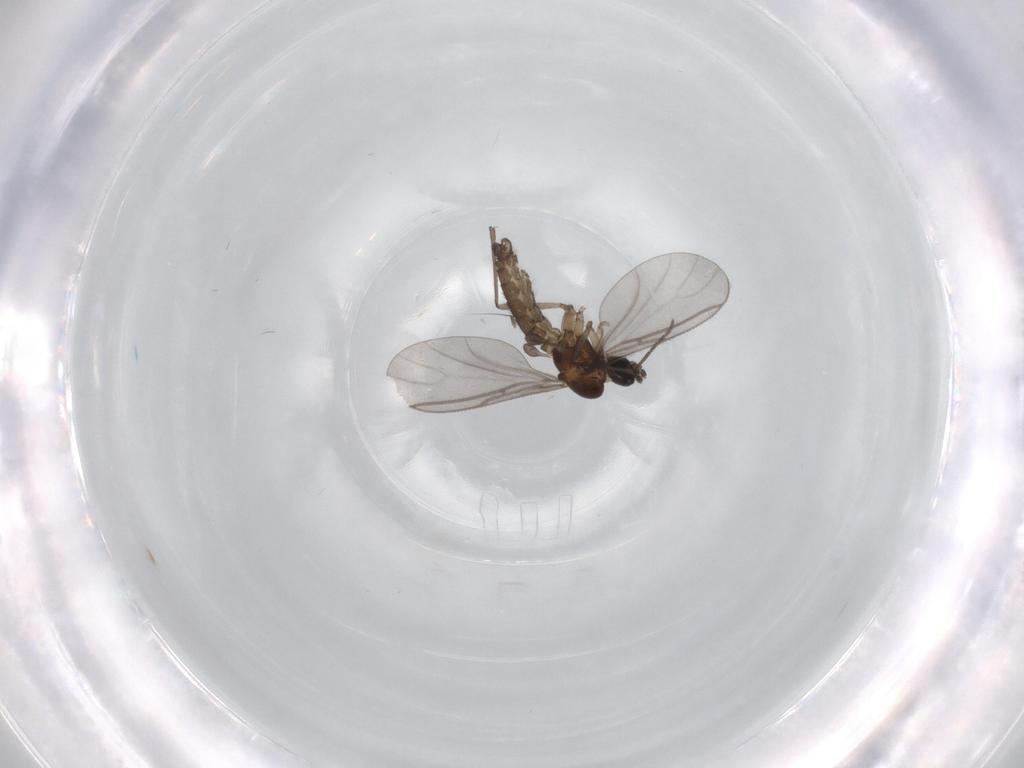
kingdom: Animalia
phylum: Arthropoda
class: Insecta
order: Diptera
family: Sciaridae
